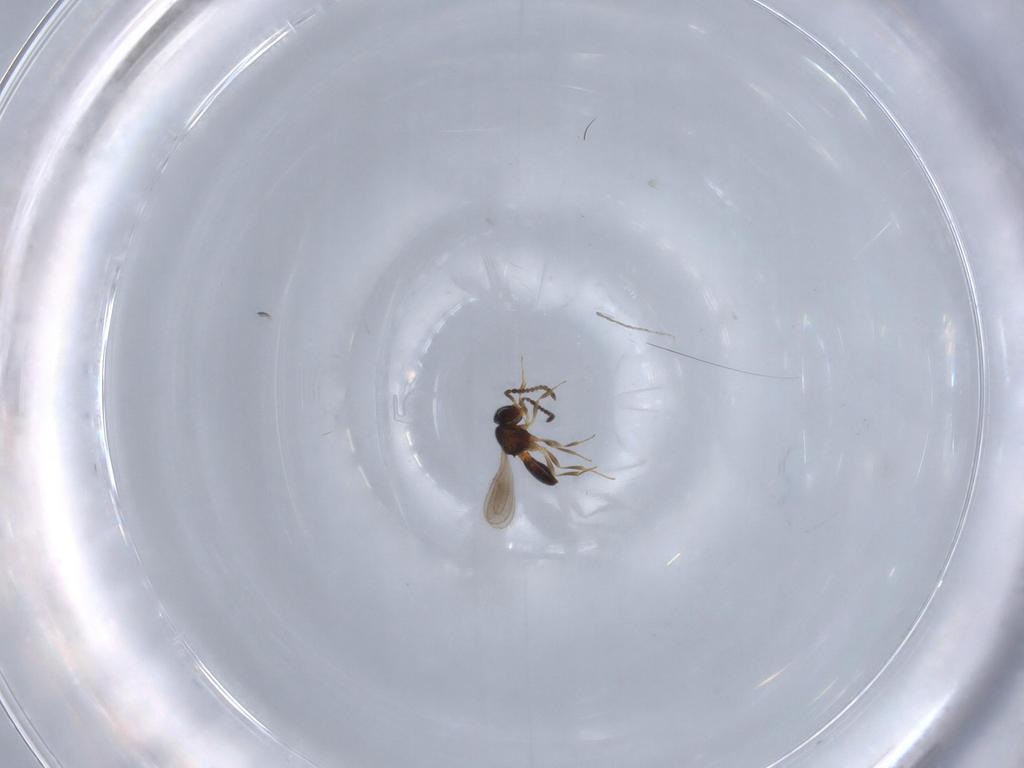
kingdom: Animalia
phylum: Arthropoda
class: Insecta
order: Hymenoptera
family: Scelionidae
